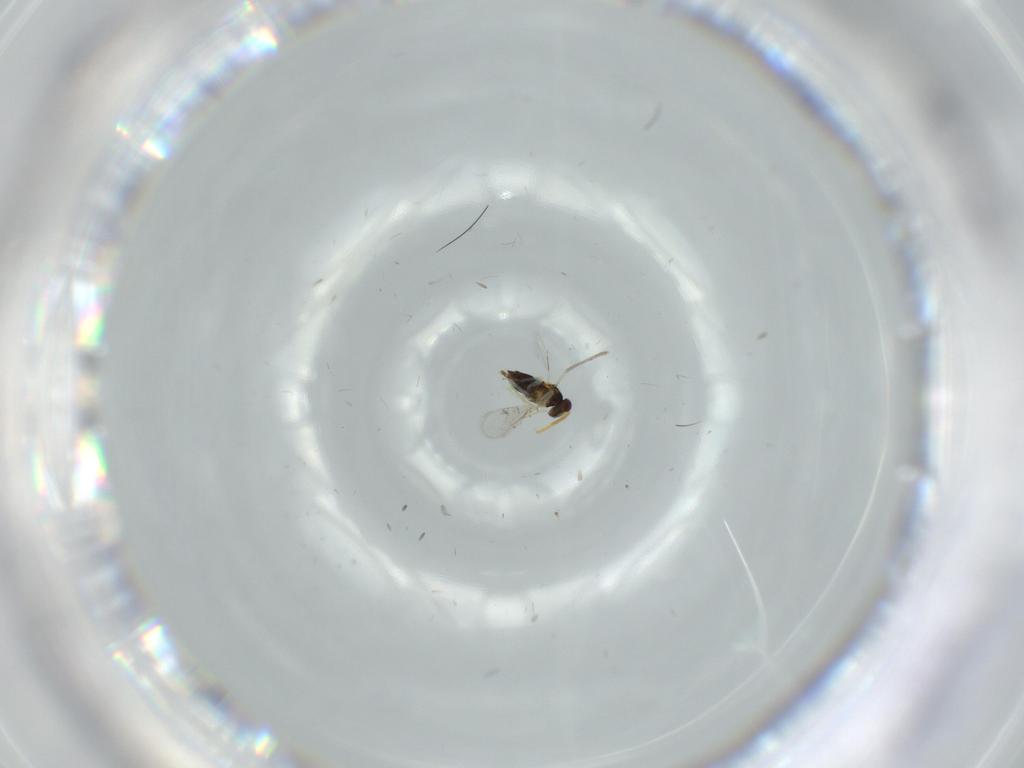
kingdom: Animalia
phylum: Arthropoda
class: Insecta
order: Hymenoptera
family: Aphelinidae
